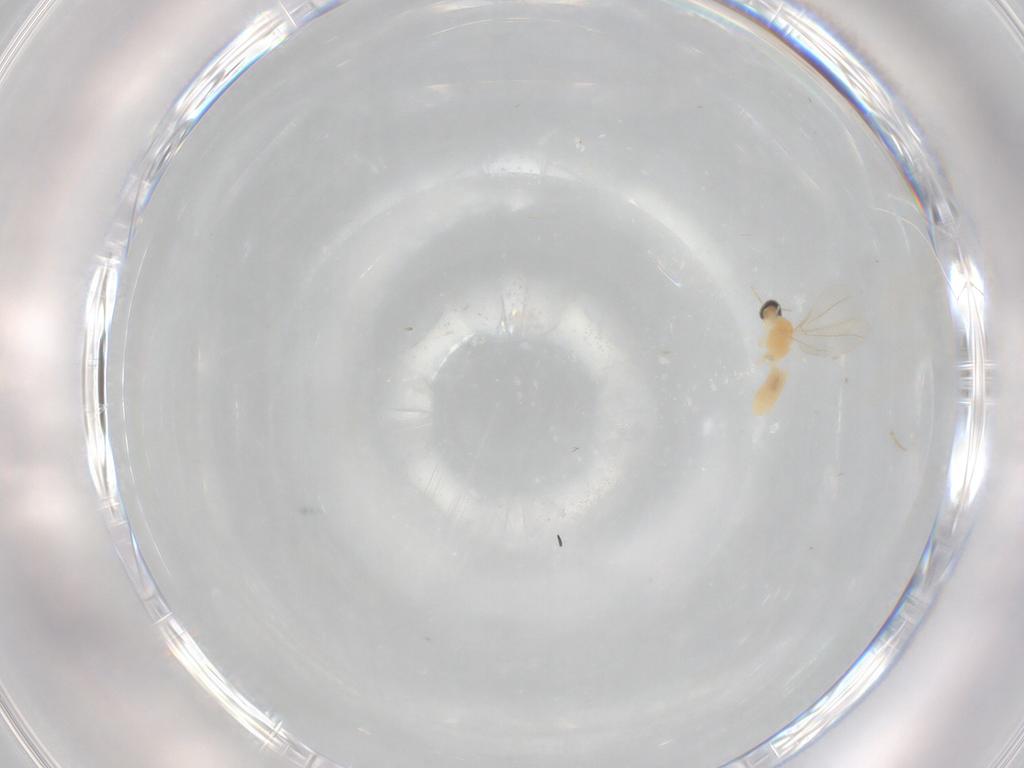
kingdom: Animalia
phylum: Arthropoda
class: Insecta
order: Diptera
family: Cecidomyiidae
